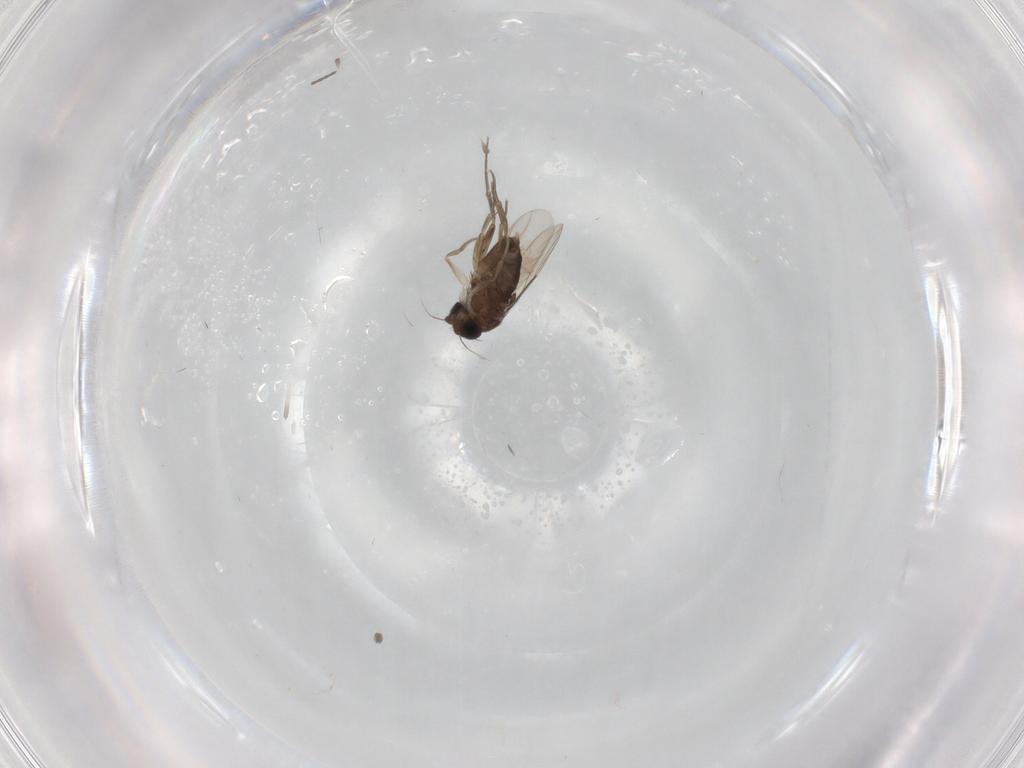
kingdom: Animalia
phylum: Arthropoda
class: Insecta
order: Diptera
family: Phoridae
